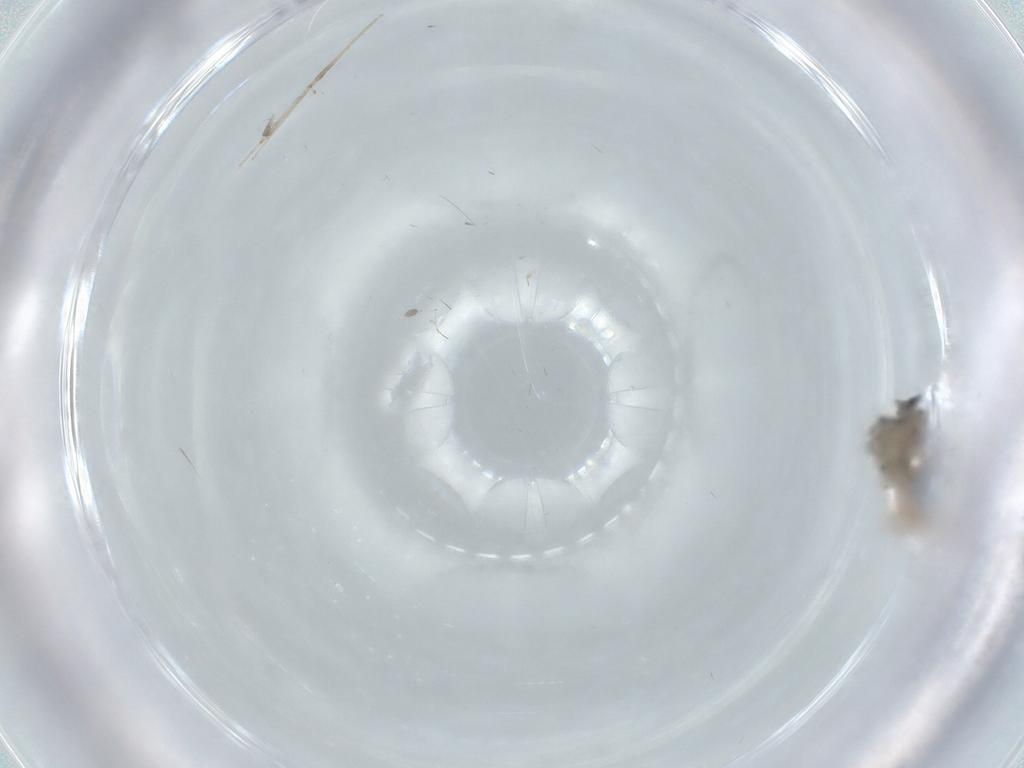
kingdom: Animalia
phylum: Arthropoda
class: Insecta
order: Diptera
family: Cecidomyiidae
